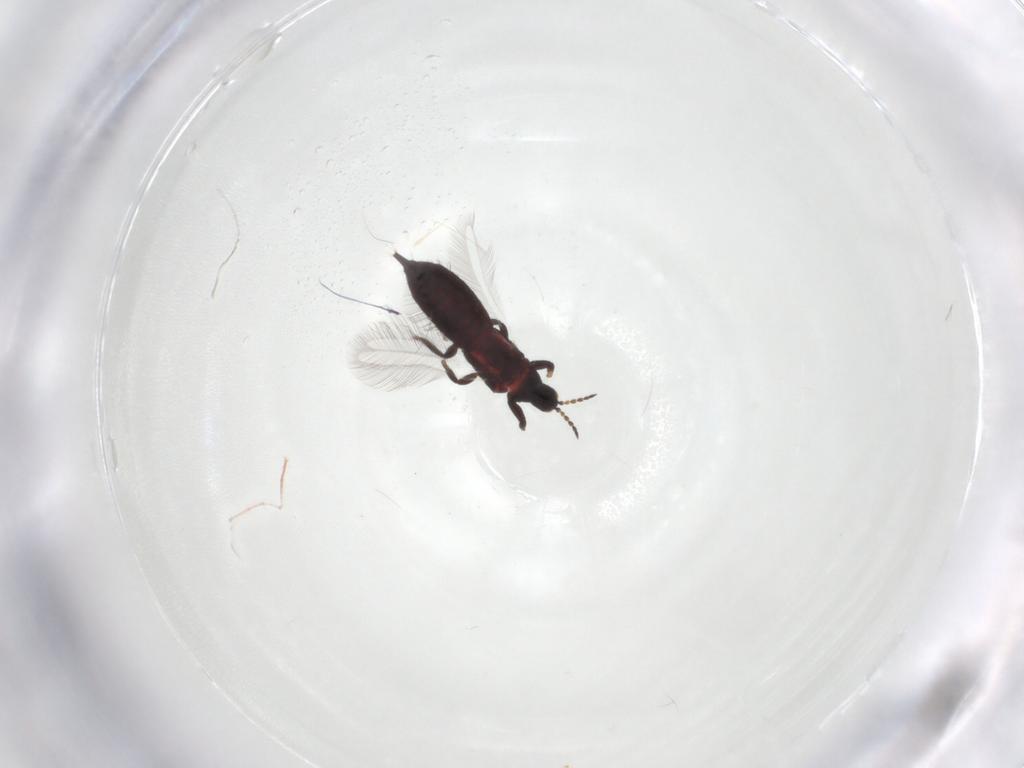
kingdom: Animalia
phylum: Arthropoda
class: Insecta
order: Thysanoptera
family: Phlaeothripidae
